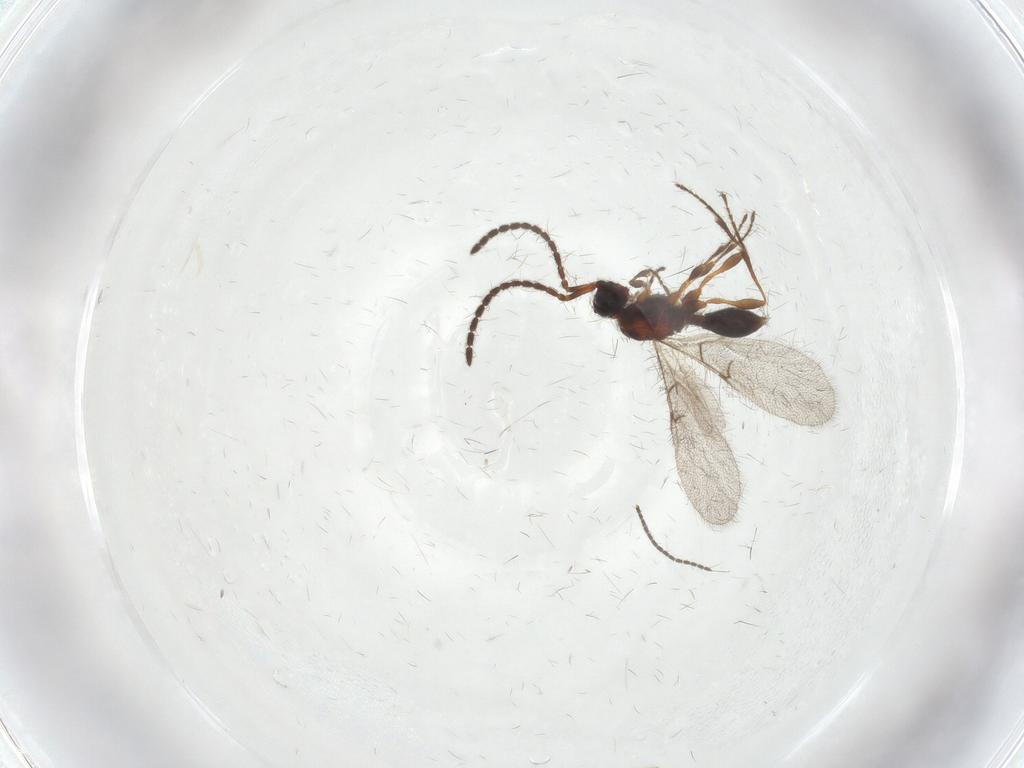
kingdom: Animalia
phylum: Arthropoda
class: Insecta
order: Hymenoptera
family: Diapriidae
